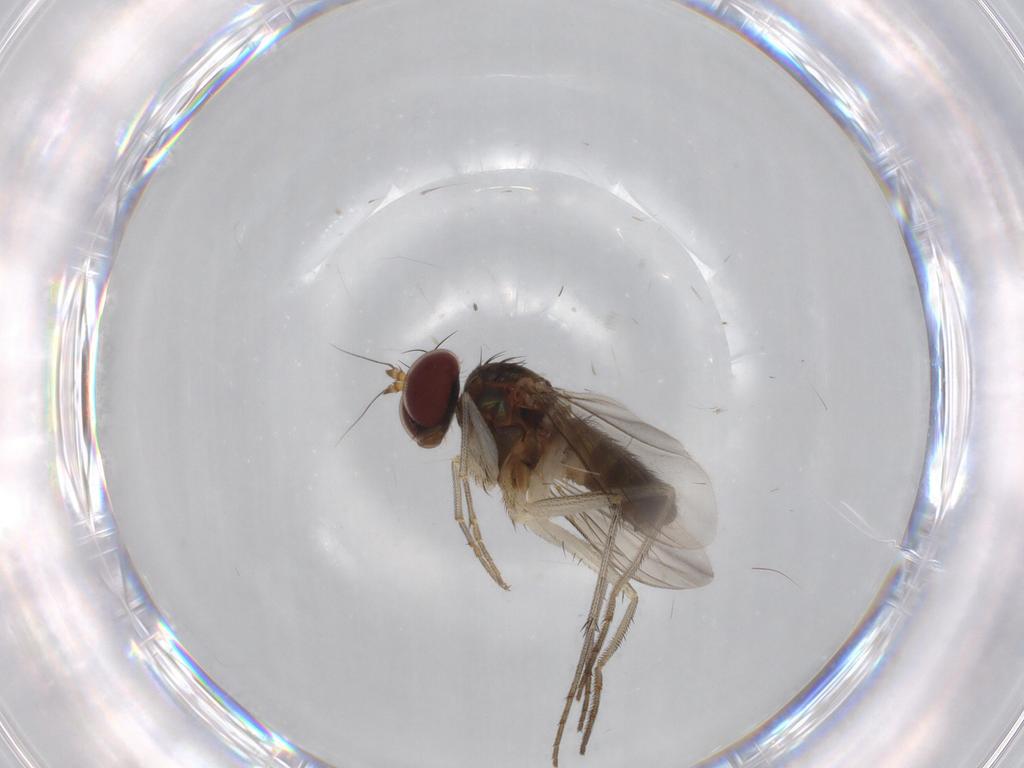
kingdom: Animalia
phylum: Arthropoda
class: Insecta
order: Diptera
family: Dolichopodidae
